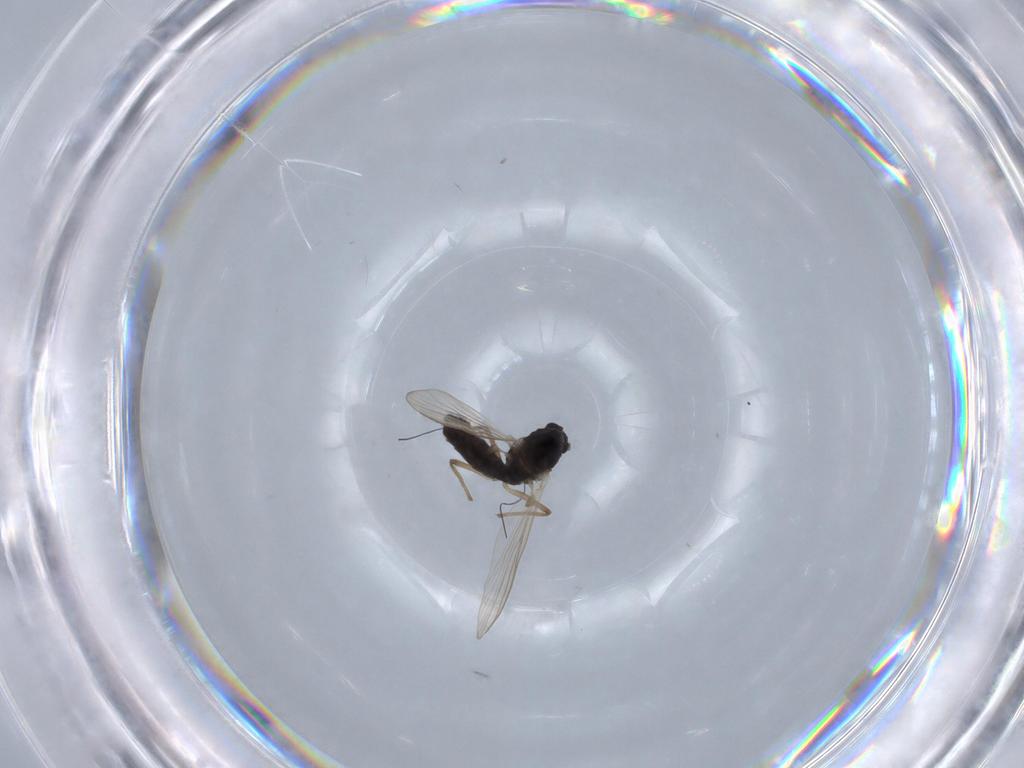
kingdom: Animalia
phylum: Arthropoda
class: Insecta
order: Diptera
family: Chironomidae
